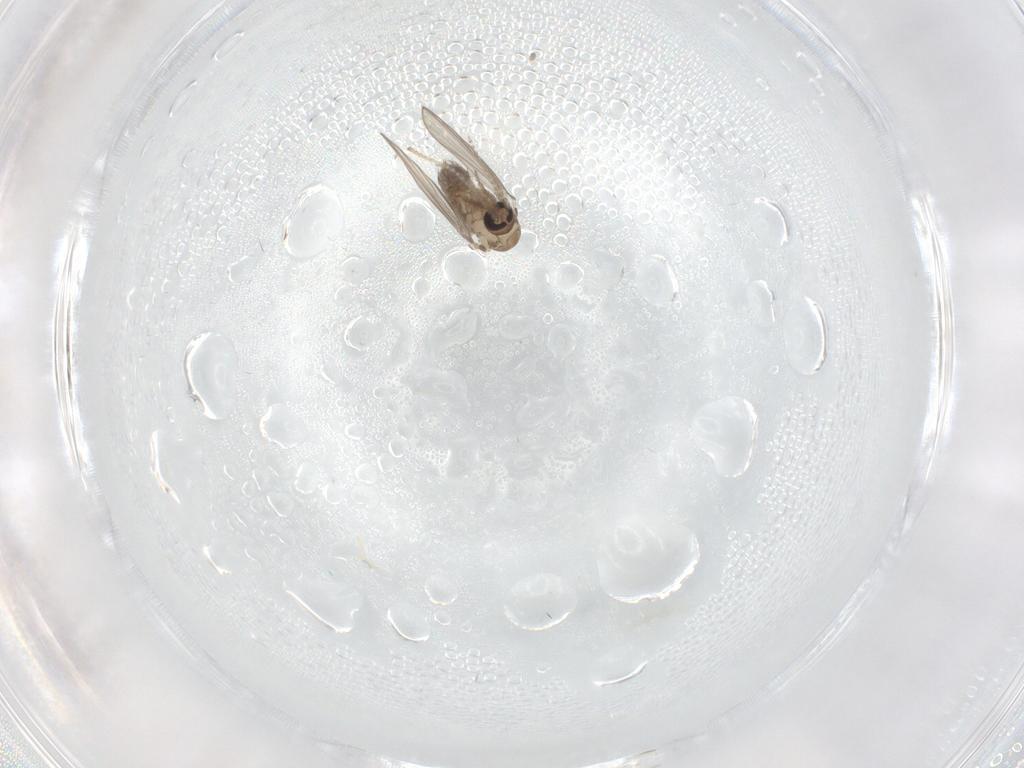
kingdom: Animalia
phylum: Arthropoda
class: Insecta
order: Diptera
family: Psychodidae
